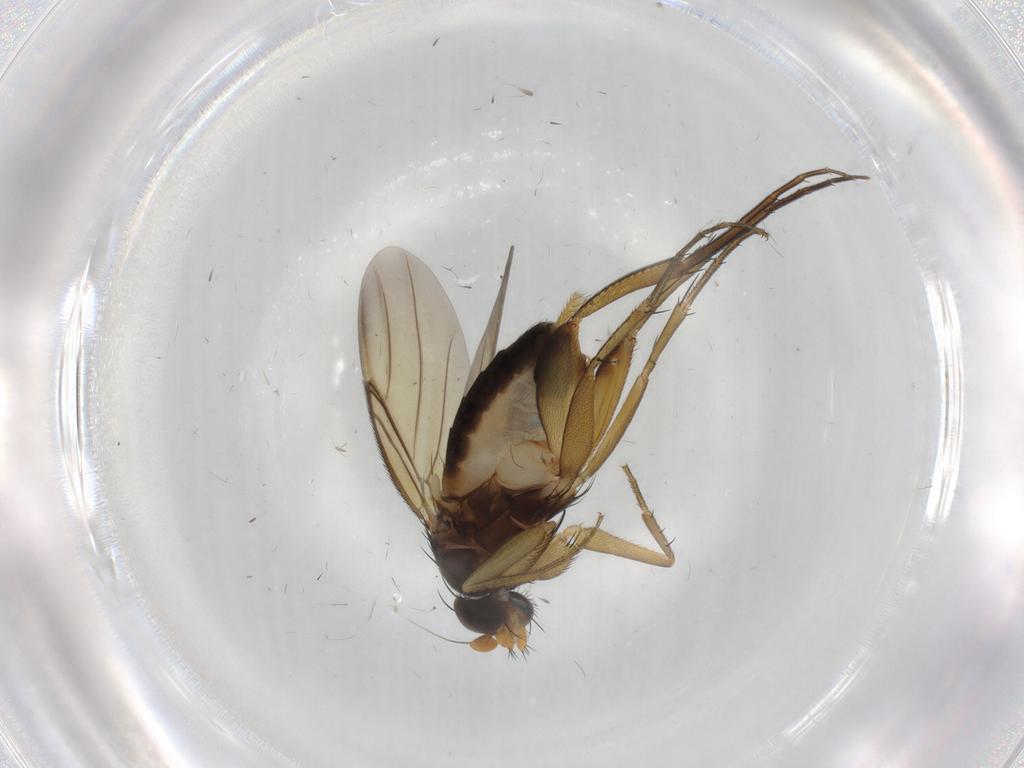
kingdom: Animalia
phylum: Arthropoda
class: Insecta
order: Diptera
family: Phoridae
